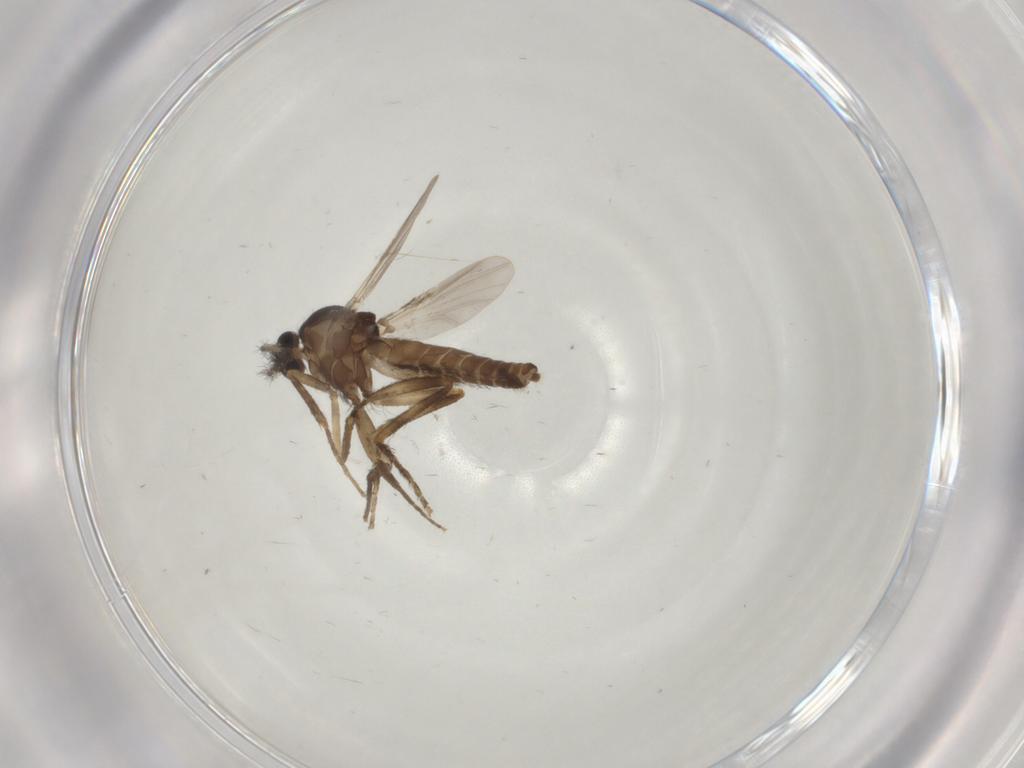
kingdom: Animalia
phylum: Arthropoda
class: Insecta
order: Diptera
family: Ceratopogonidae
